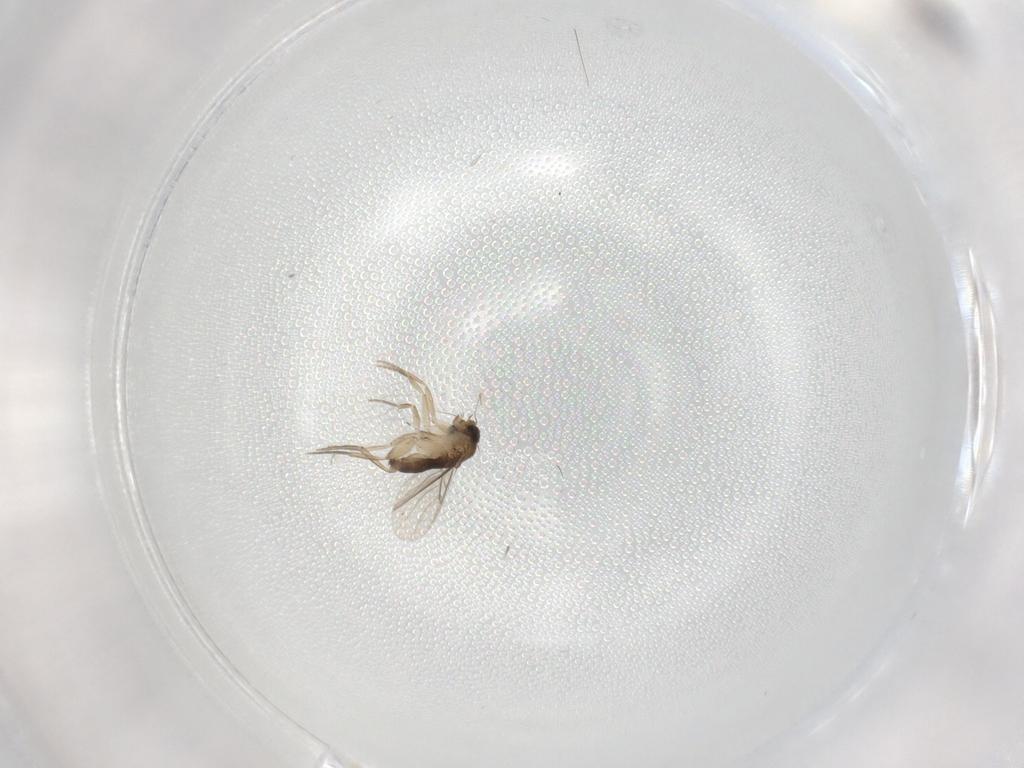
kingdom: Animalia
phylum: Arthropoda
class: Insecta
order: Diptera
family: Phoridae
